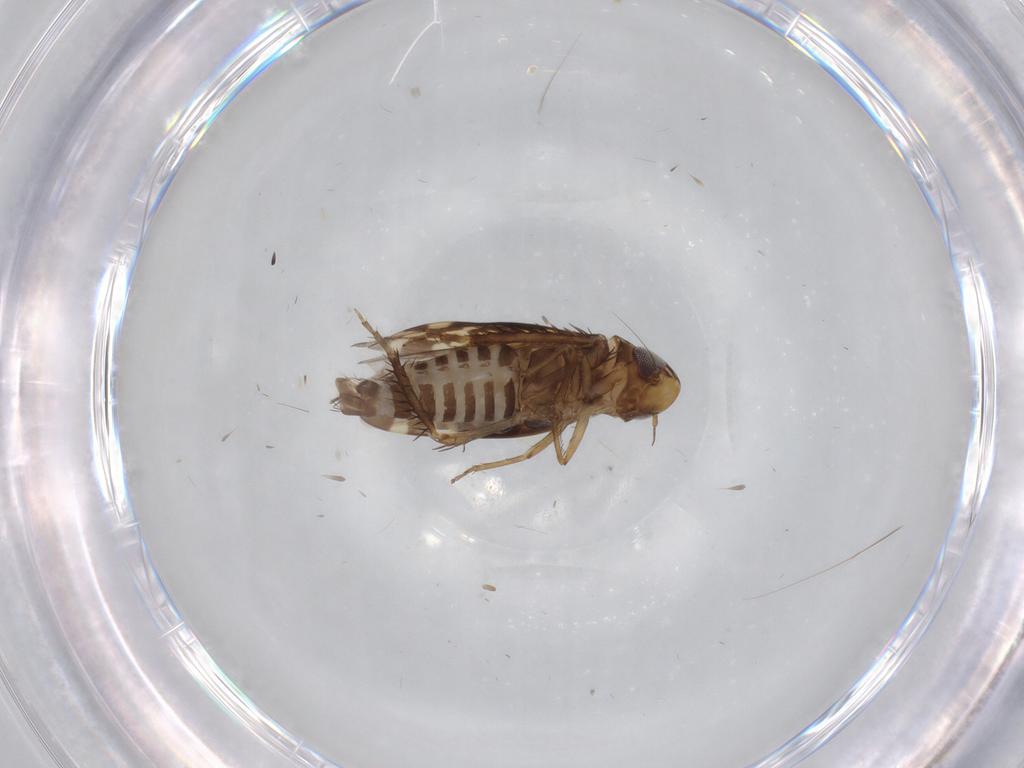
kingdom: Animalia
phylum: Arthropoda
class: Insecta
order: Hemiptera
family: Cicadellidae
